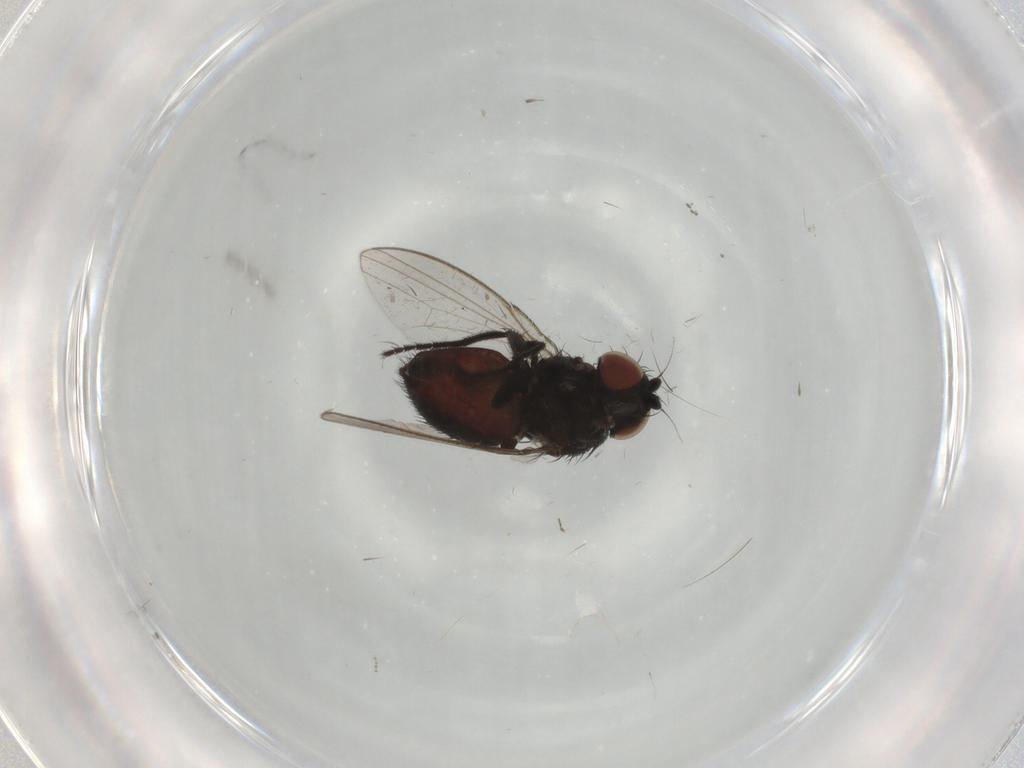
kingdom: Animalia
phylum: Arthropoda
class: Insecta
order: Diptera
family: Milichiidae
